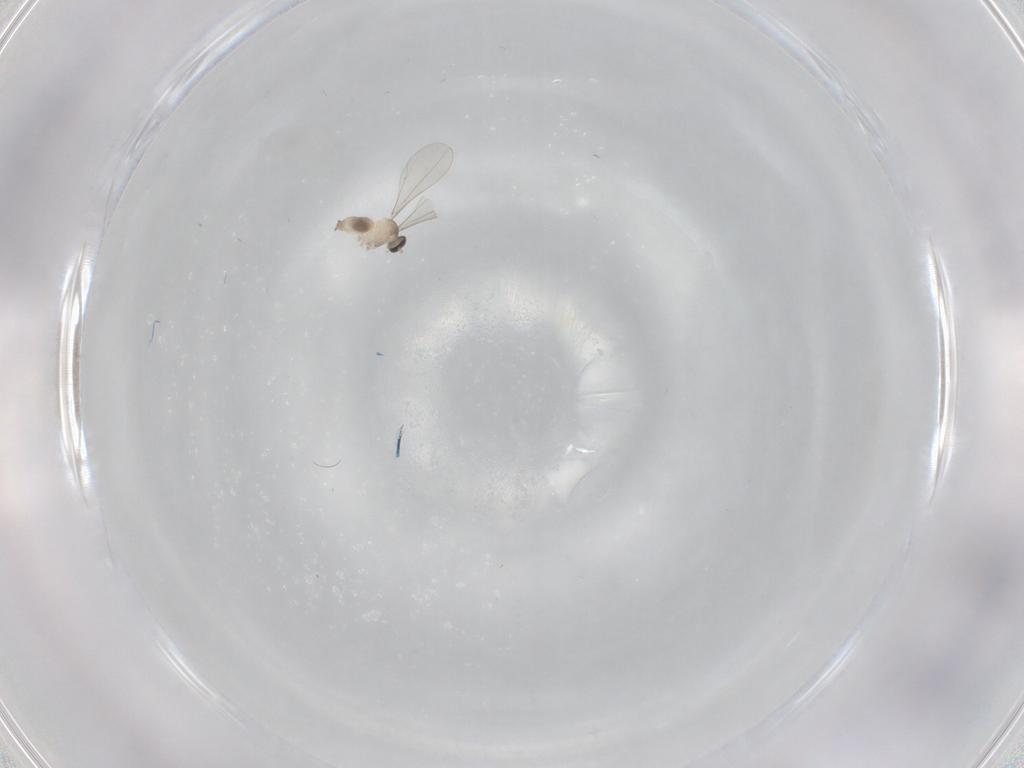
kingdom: Animalia
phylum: Arthropoda
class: Insecta
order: Diptera
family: Cecidomyiidae
